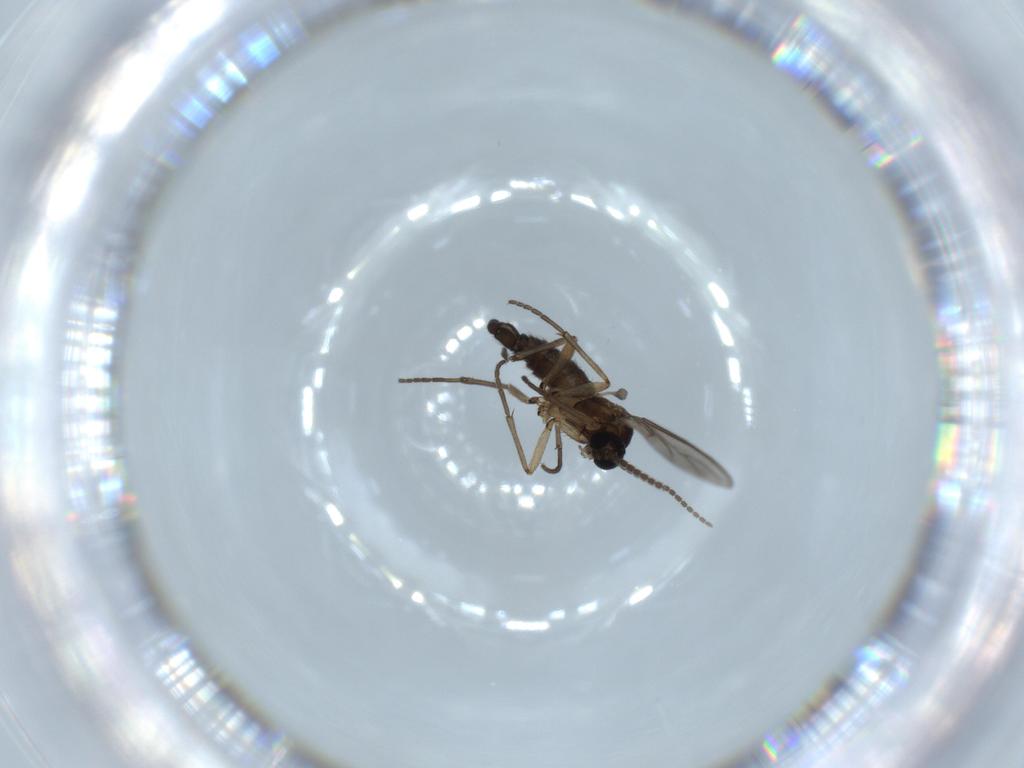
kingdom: Animalia
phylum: Arthropoda
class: Insecta
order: Diptera
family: Sciaridae
